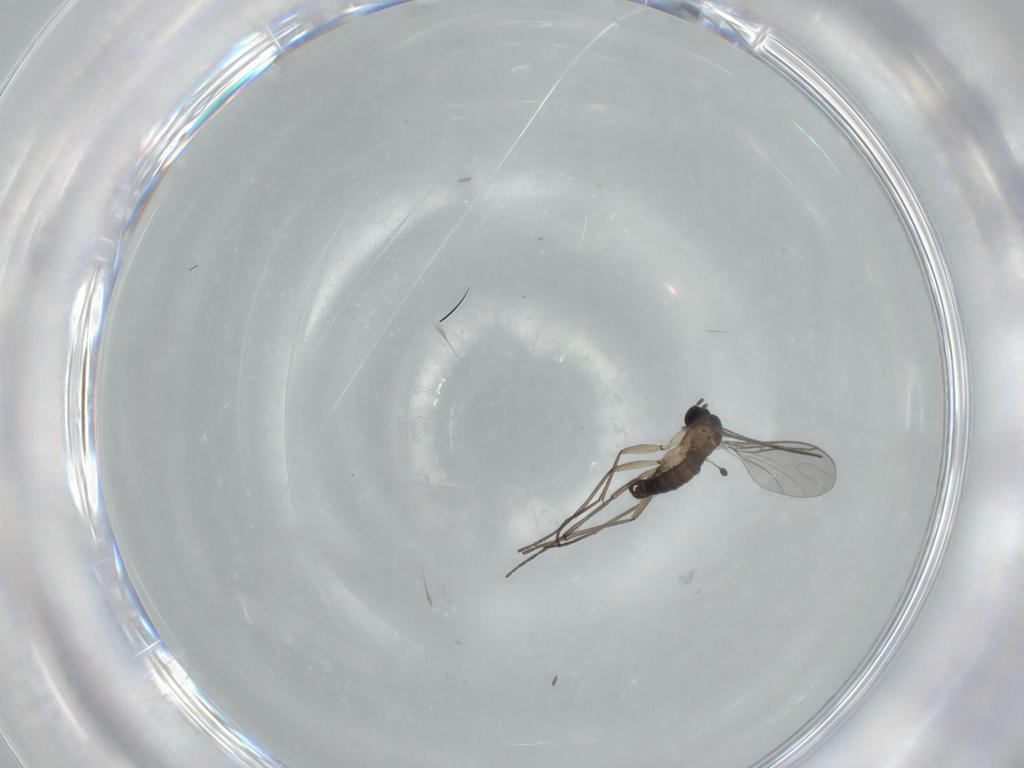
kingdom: Animalia
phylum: Arthropoda
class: Insecta
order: Diptera
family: Sciaridae
